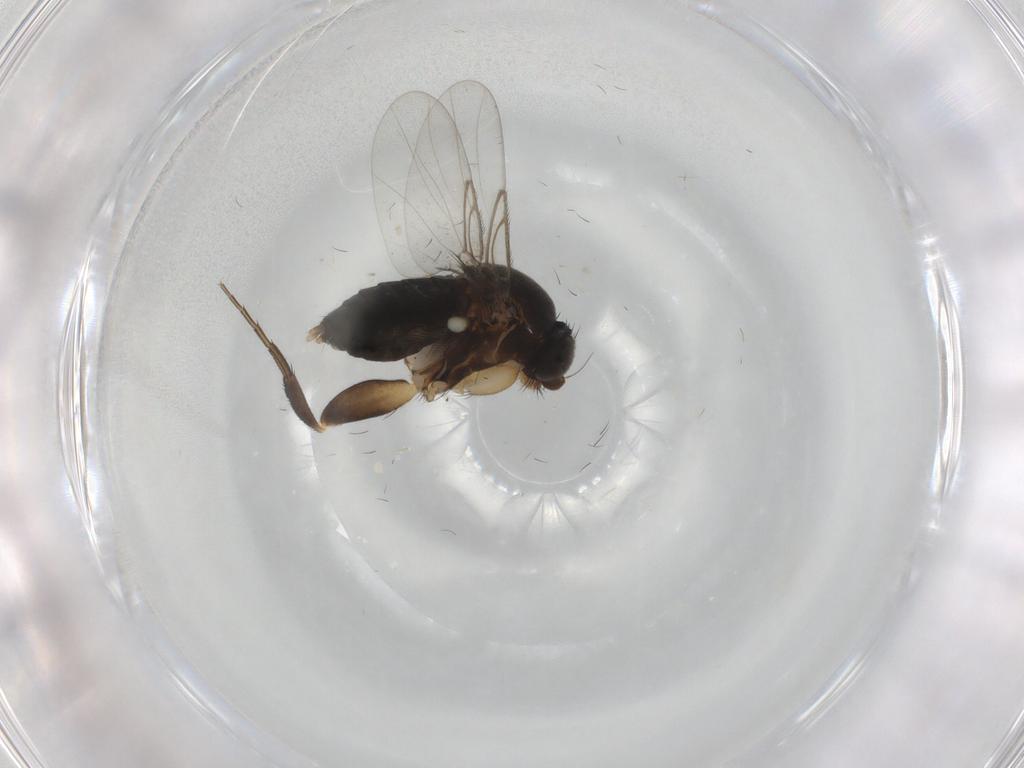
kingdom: Animalia
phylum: Arthropoda
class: Insecta
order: Diptera
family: Phoridae
